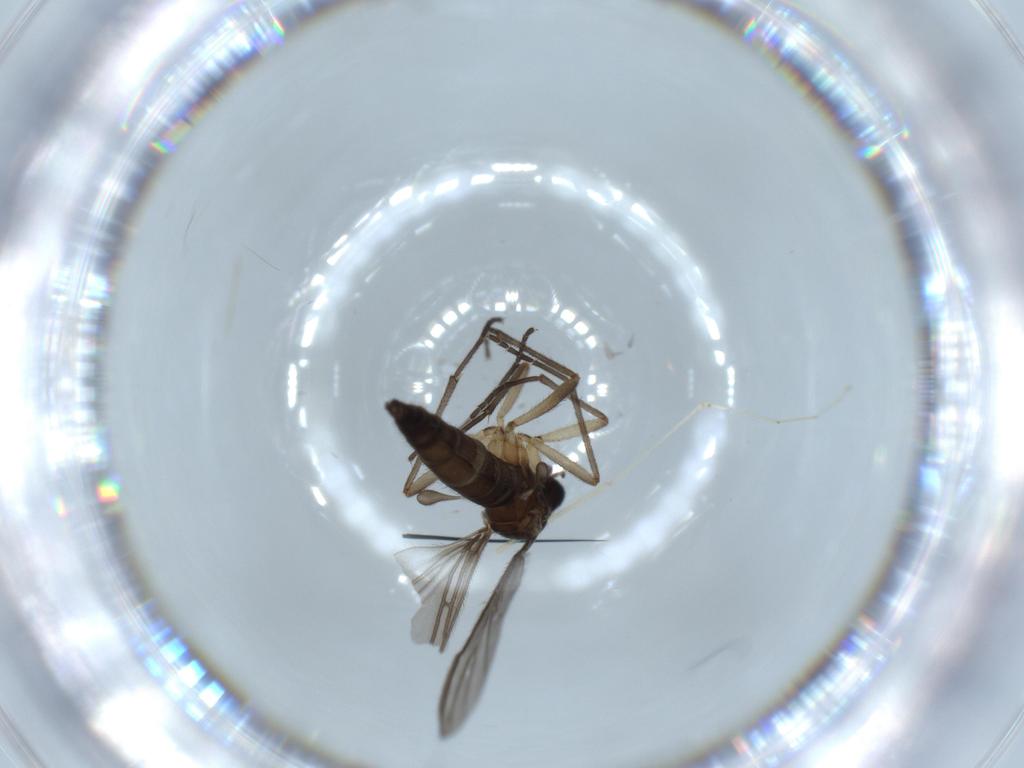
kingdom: Animalia
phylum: Arthropoda
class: Insecta
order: Diptera
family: Cecidomyiidae
